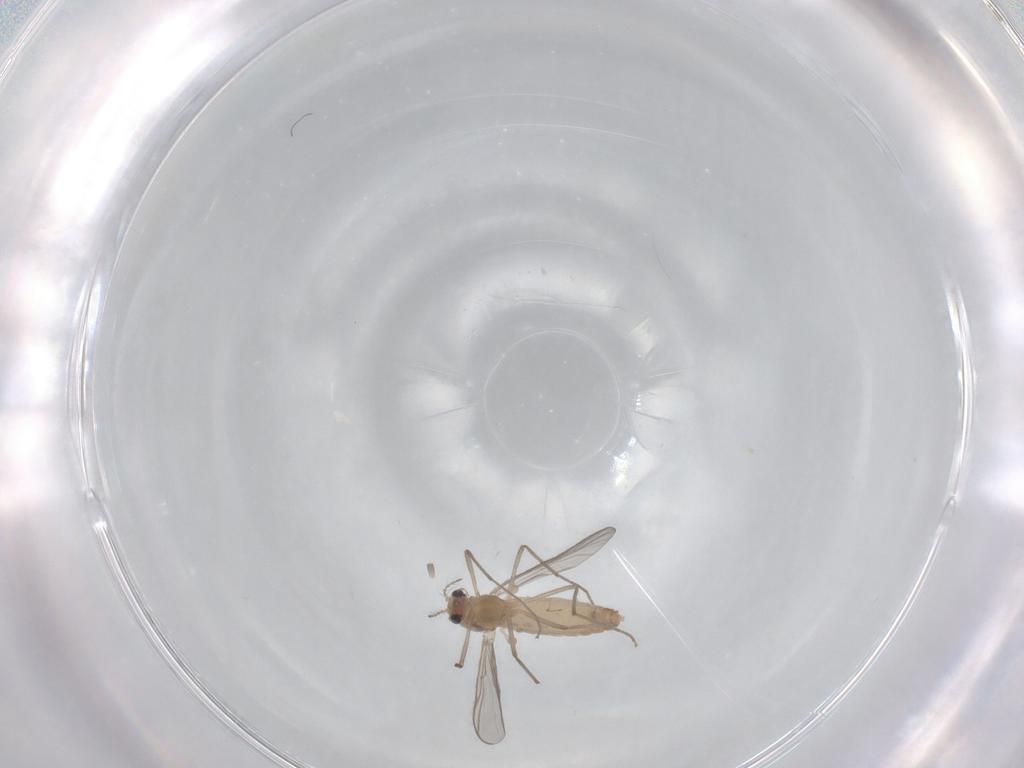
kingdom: Animalia
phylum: Arthropoda
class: Insecta
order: Diptera
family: Chironomidae
